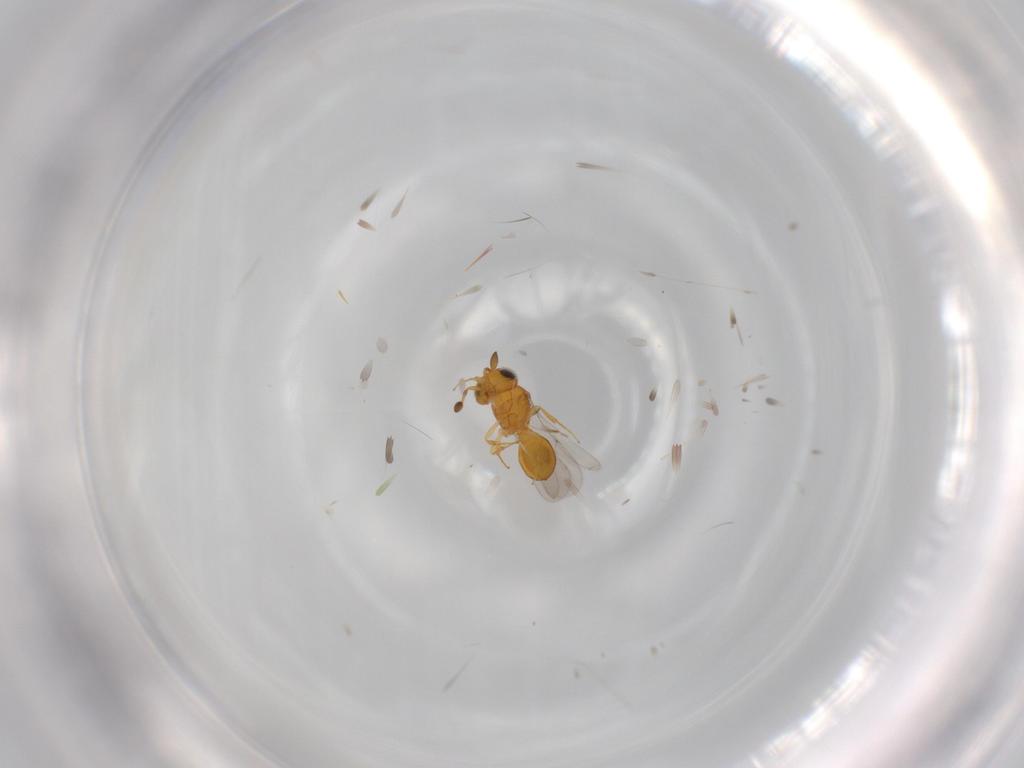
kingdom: Animalia
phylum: Arthropoda
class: Insecta
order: Hymenoptera
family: Scelionidae
